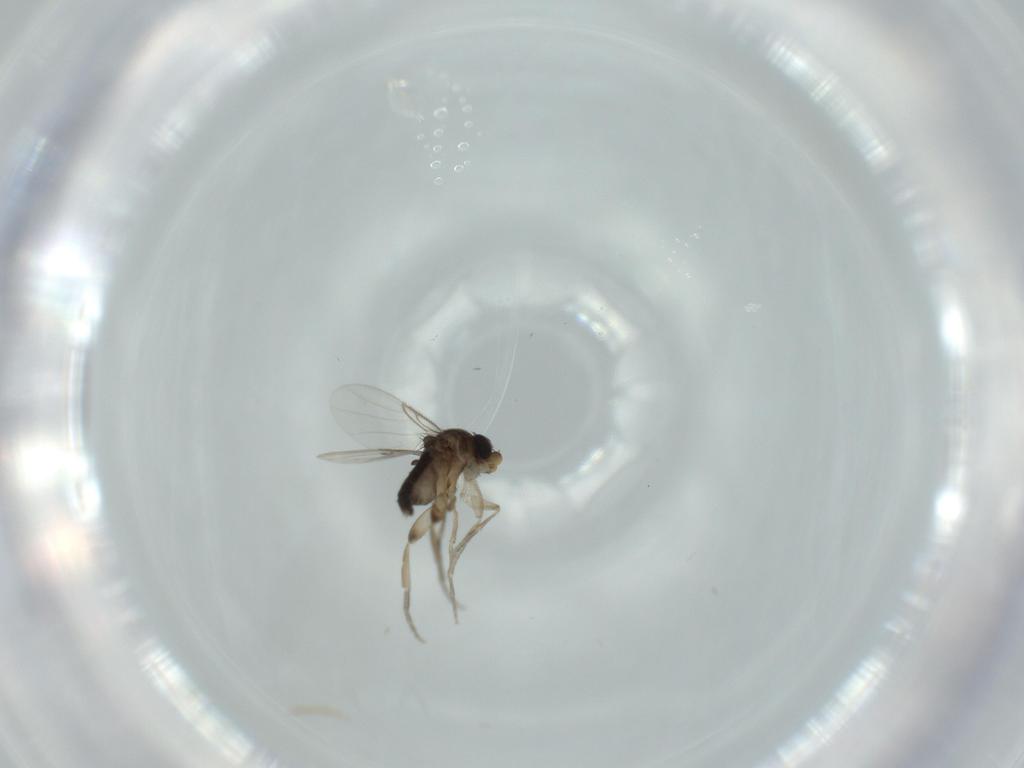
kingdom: Animalia
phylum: Arthropoda
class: Insecta
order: Diptera
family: Phoridae
